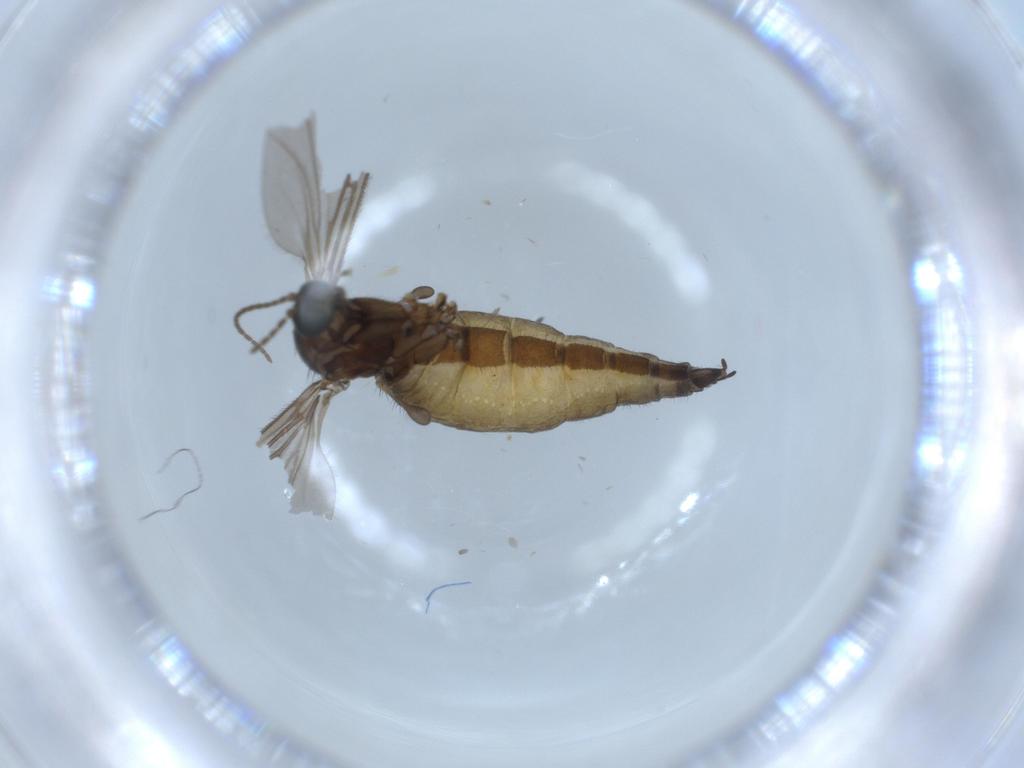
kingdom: Animalia
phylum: Arthropoda
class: Insecta
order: Diptera
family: Sciaridae
